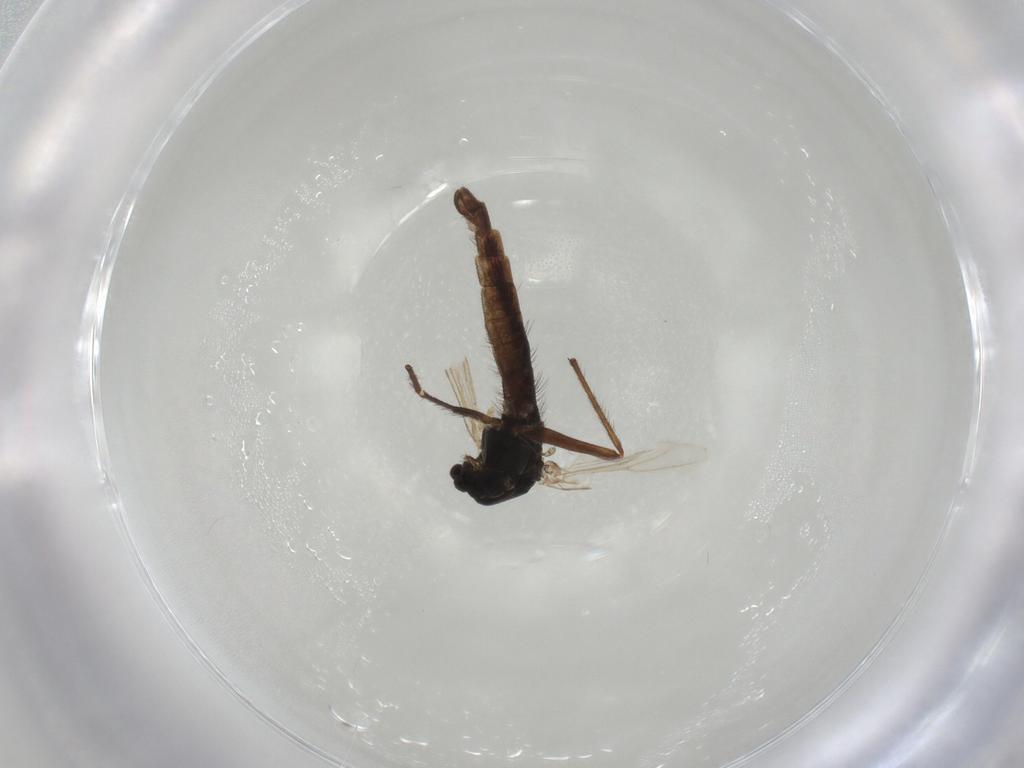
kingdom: Animalia
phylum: Arthropoda
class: Insecta
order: Diptera
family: Chironomidae
